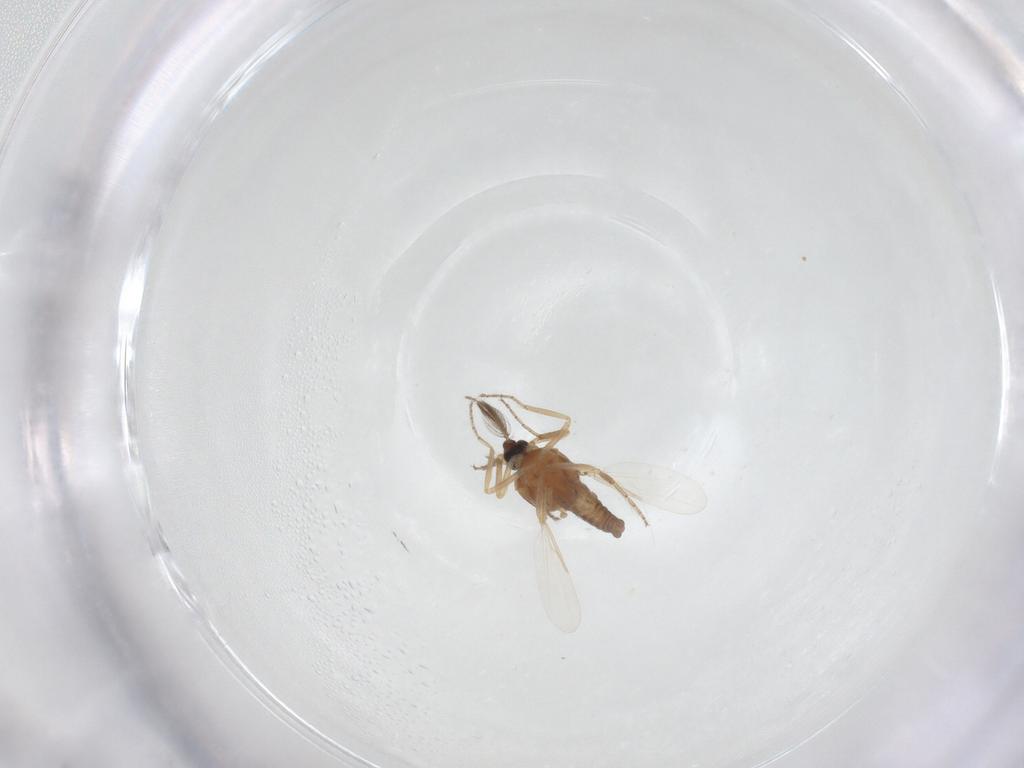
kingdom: Animalia
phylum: Arthropoda
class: Insecta
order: Diptera
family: Ceratopogonidae
